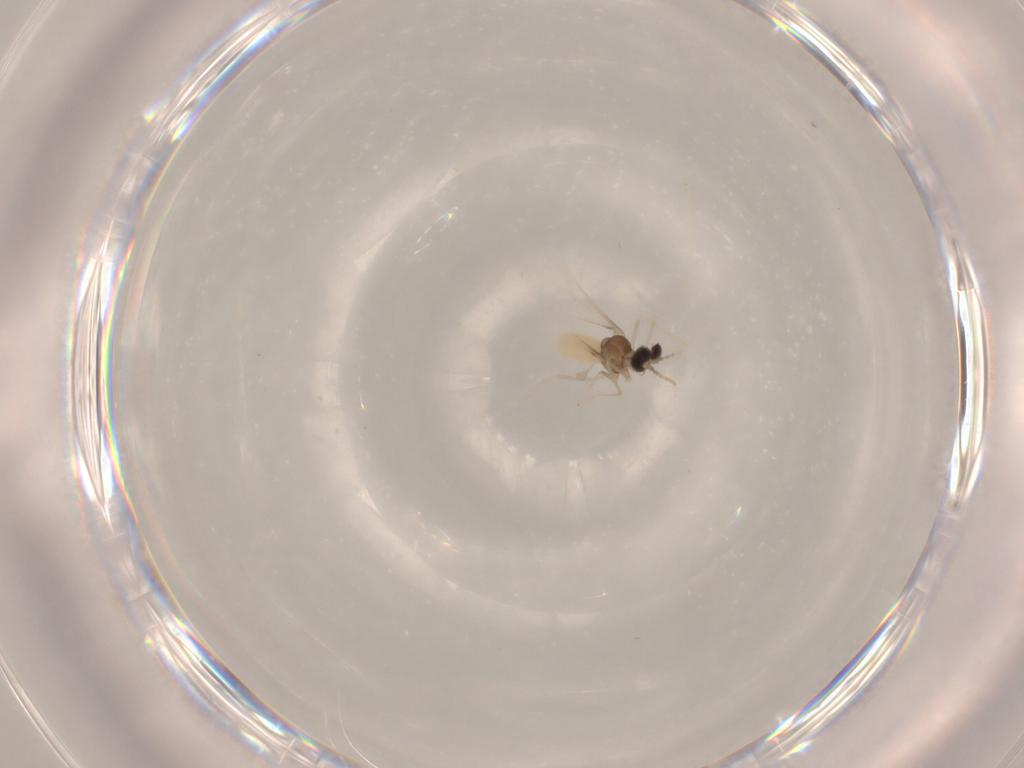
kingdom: Animalia
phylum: Arthropoda
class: Insecta
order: Diptera
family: Cecidomyiidae
